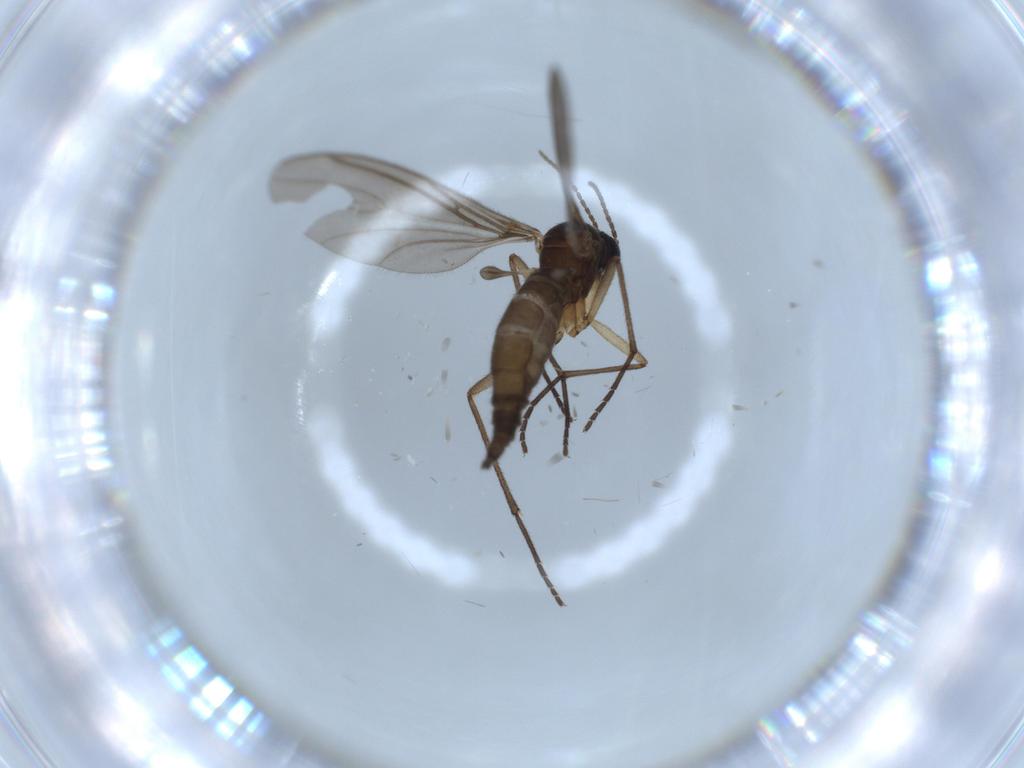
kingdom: Animalia
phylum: Arthropoda
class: Insecta
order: Diptera
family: Sciaridae
